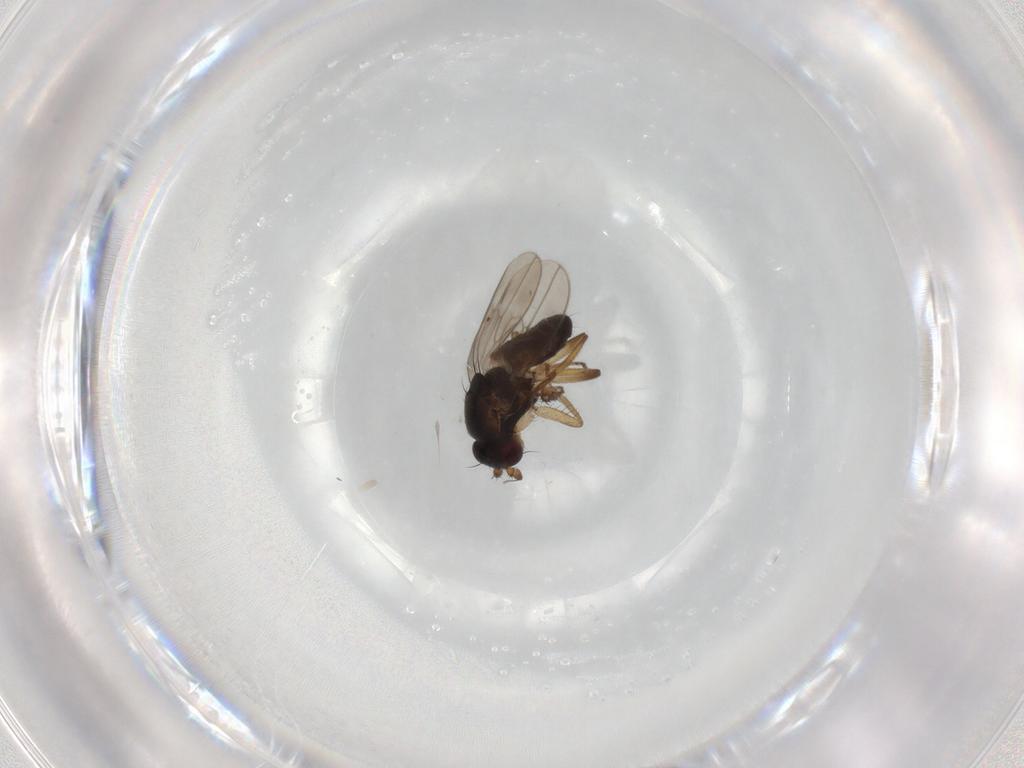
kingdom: Animalia
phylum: Arthropoda
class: Insecta
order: Diptera
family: Sphaeroceridae
